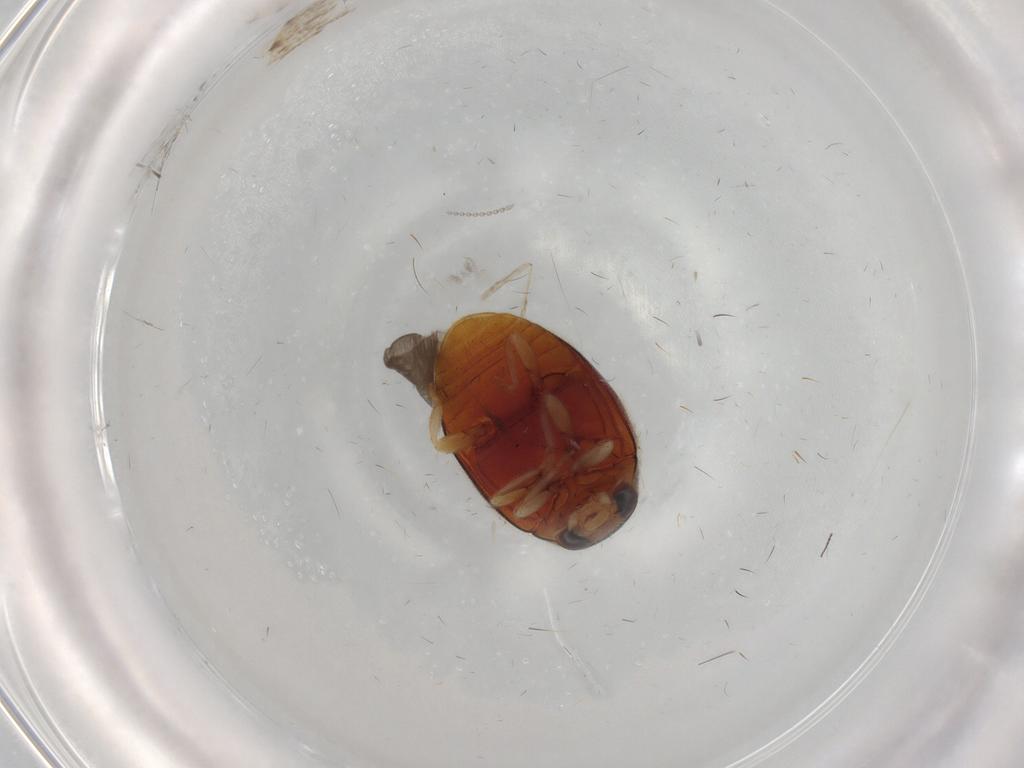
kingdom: Animalia
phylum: Arthropoda
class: Insecta
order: Coleoptera
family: Coccinellidae
